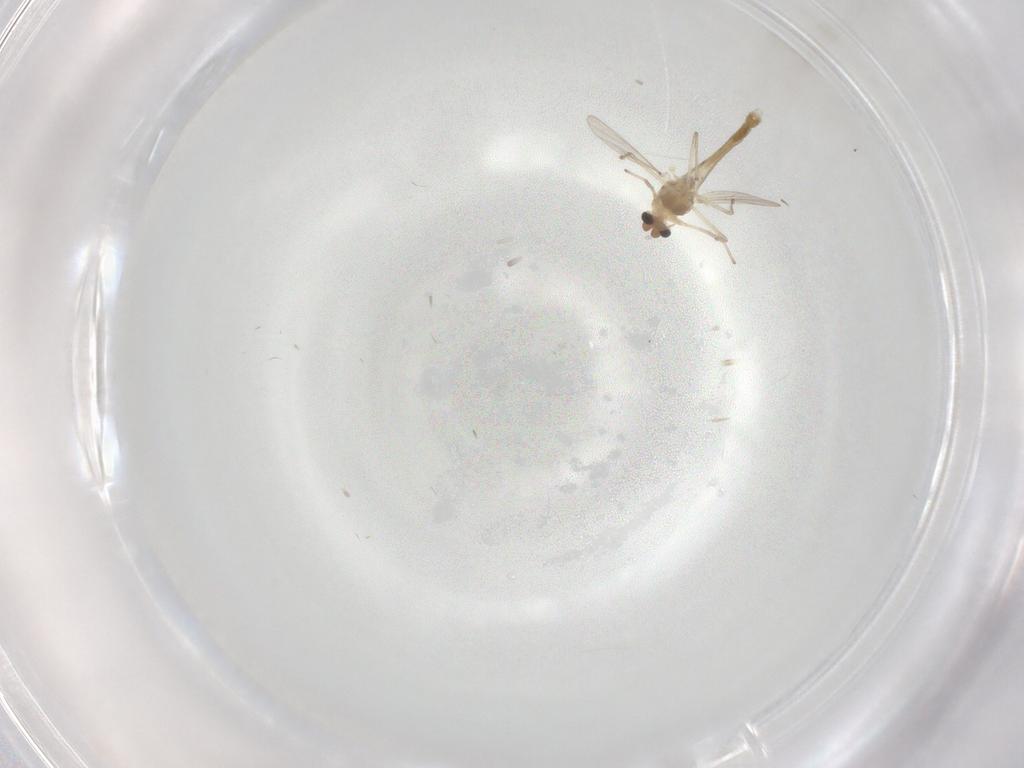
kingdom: Animalia
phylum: Arthropoda
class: Insecta
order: Diptera
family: Chironomidae
